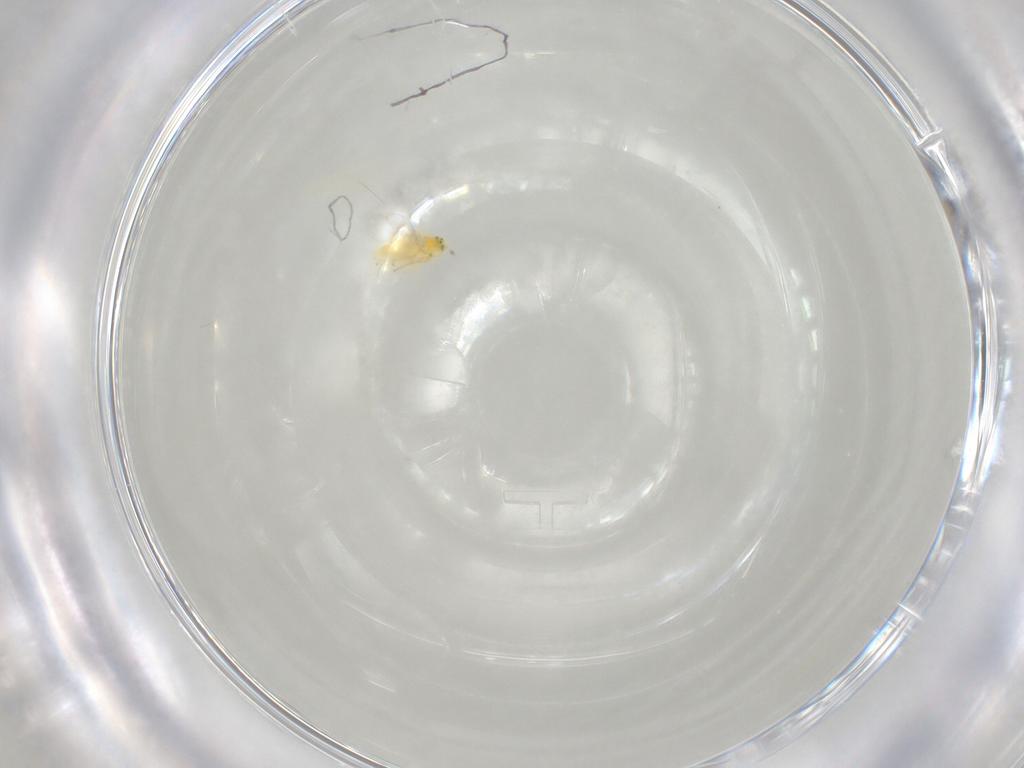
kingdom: Animalia
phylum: Arthropoda
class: Insecta
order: Hymenoptera
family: Aphelinidae
